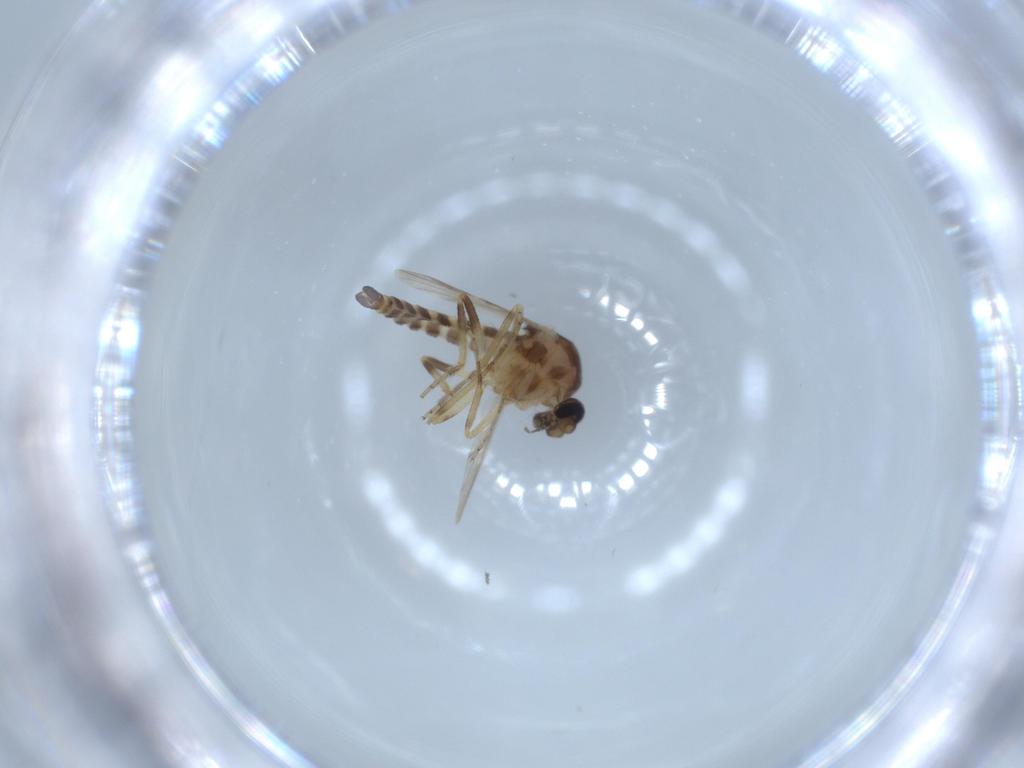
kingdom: Animalia
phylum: Arthropoda
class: Insecta
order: Diptera
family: Ceratopogonidae
